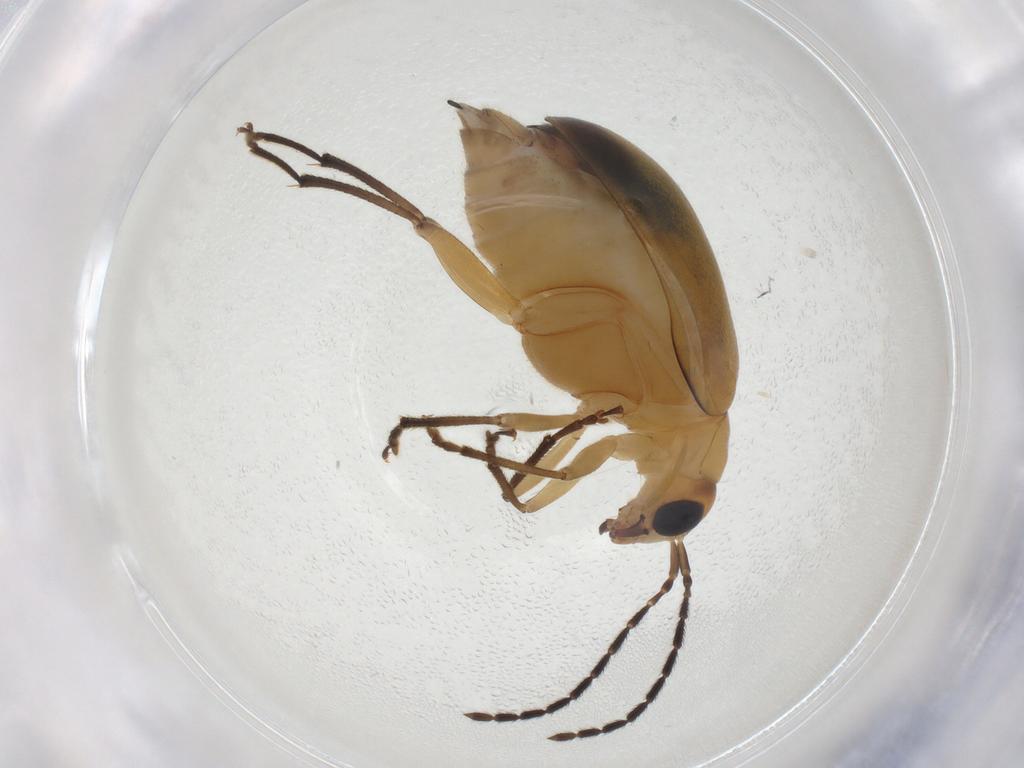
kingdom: Animalia
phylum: Arthropoda
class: Insecta
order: Coleoptera
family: Chrysomelidae
